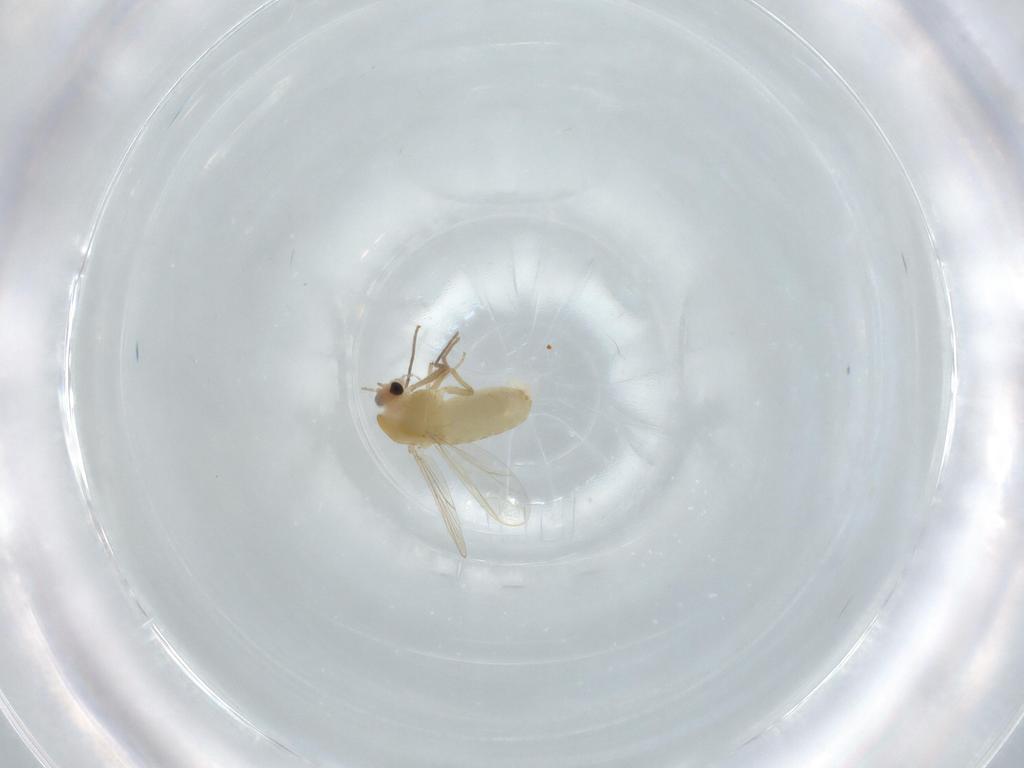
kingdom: Animalia
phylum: Arthropoda
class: Insecta
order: Diptera
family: Chironomidae
